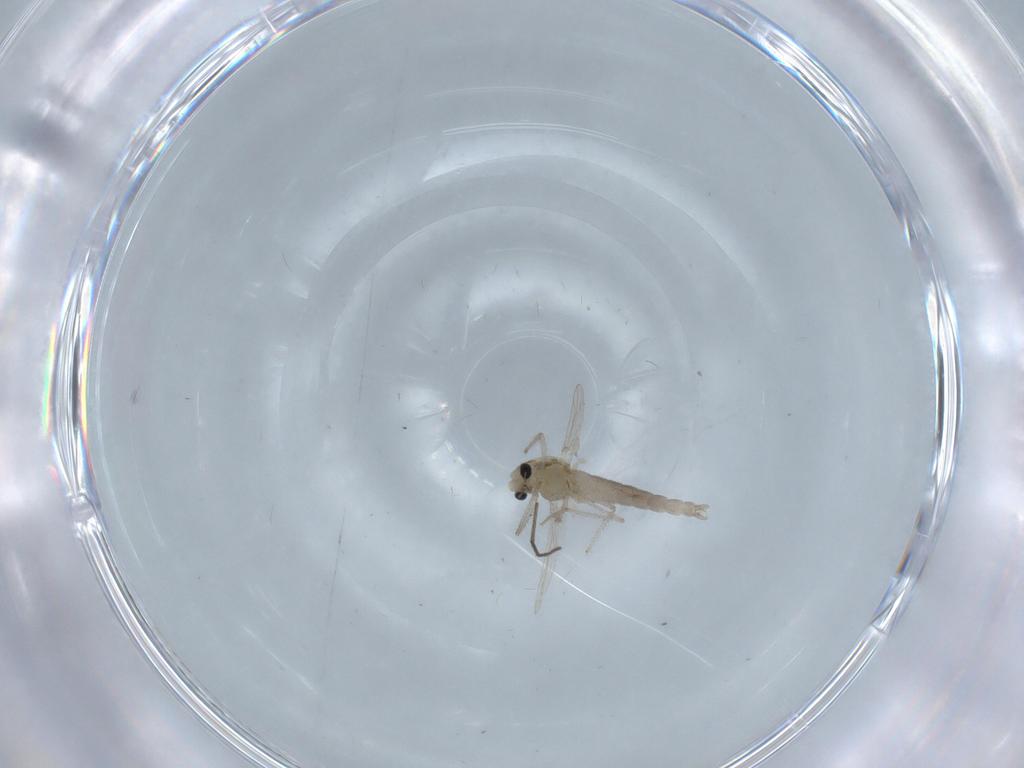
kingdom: Animalia
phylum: Arthropoda
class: Insecta
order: Diptera
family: Chironomidae
